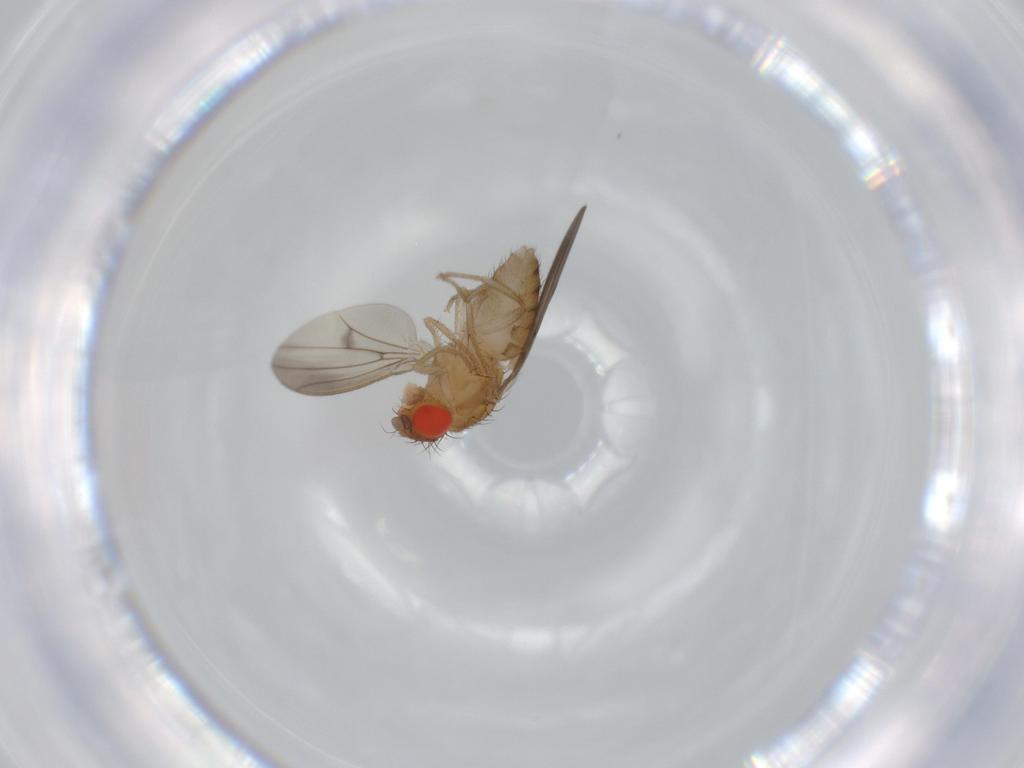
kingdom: Animalia
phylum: Arthropoda
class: Insecta
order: Diptera
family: Drosophilidae
